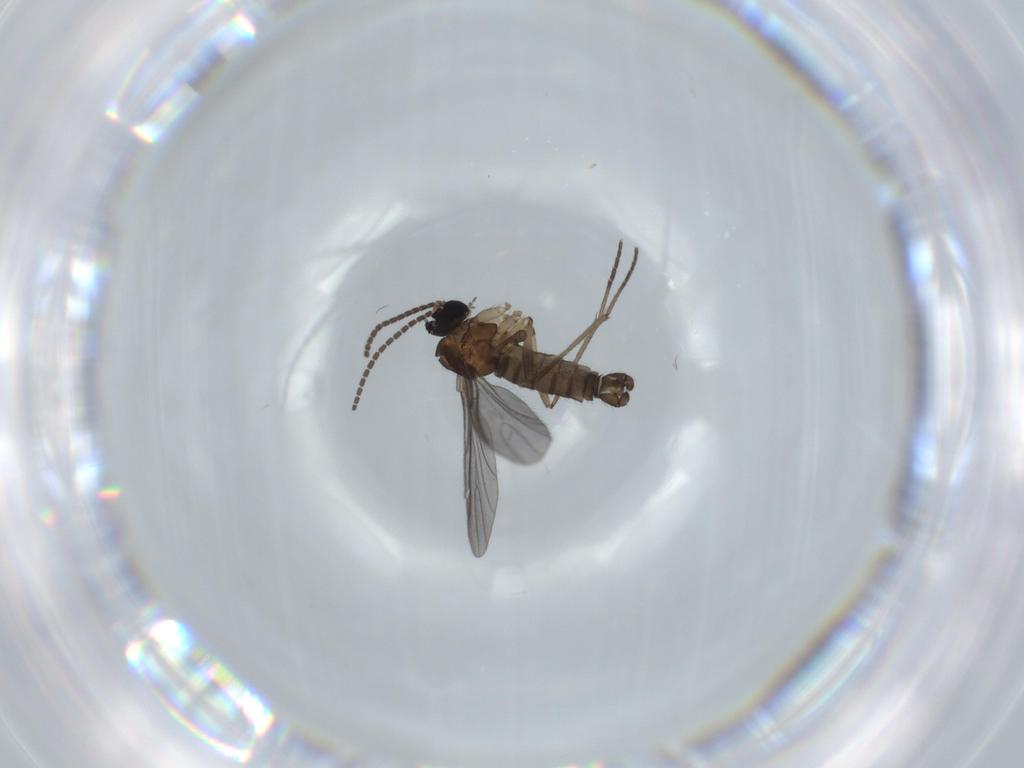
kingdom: Animalia
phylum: Arthropoda
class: Insecta
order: Diptera
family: Sciaridae
